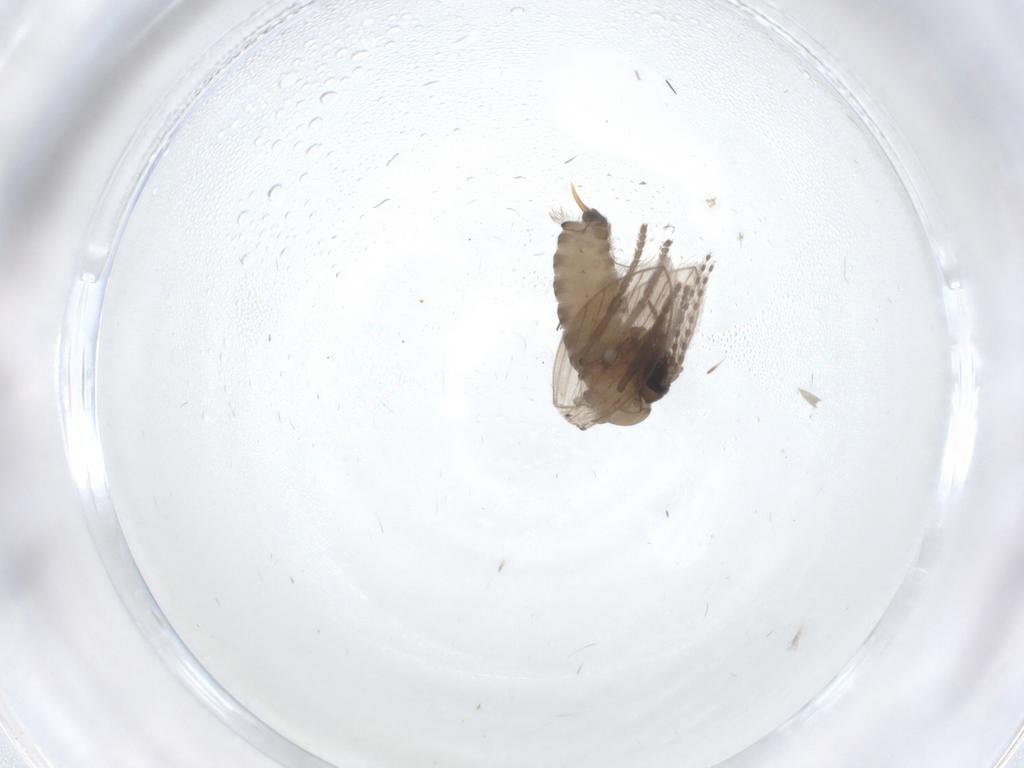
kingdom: Animalia
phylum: Arthropoda
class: Insecta
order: Diptera
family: Psychodidae
